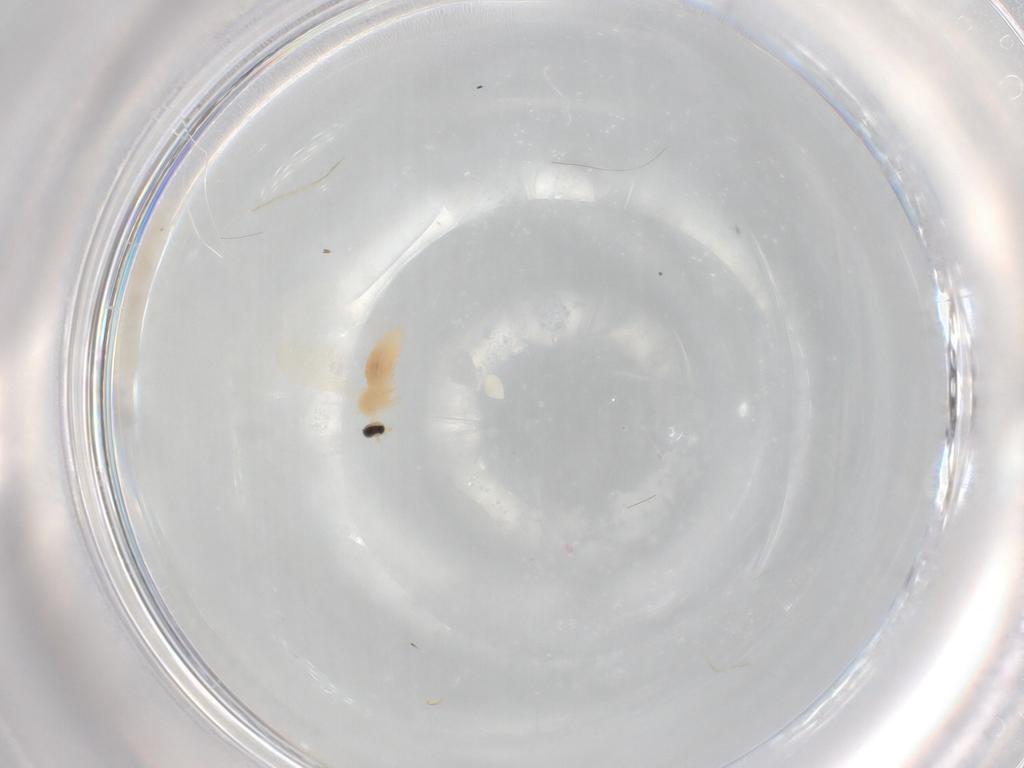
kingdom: Animalia
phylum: Arthropoda
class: Insecta
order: Diptera
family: Cecidomyiidae
